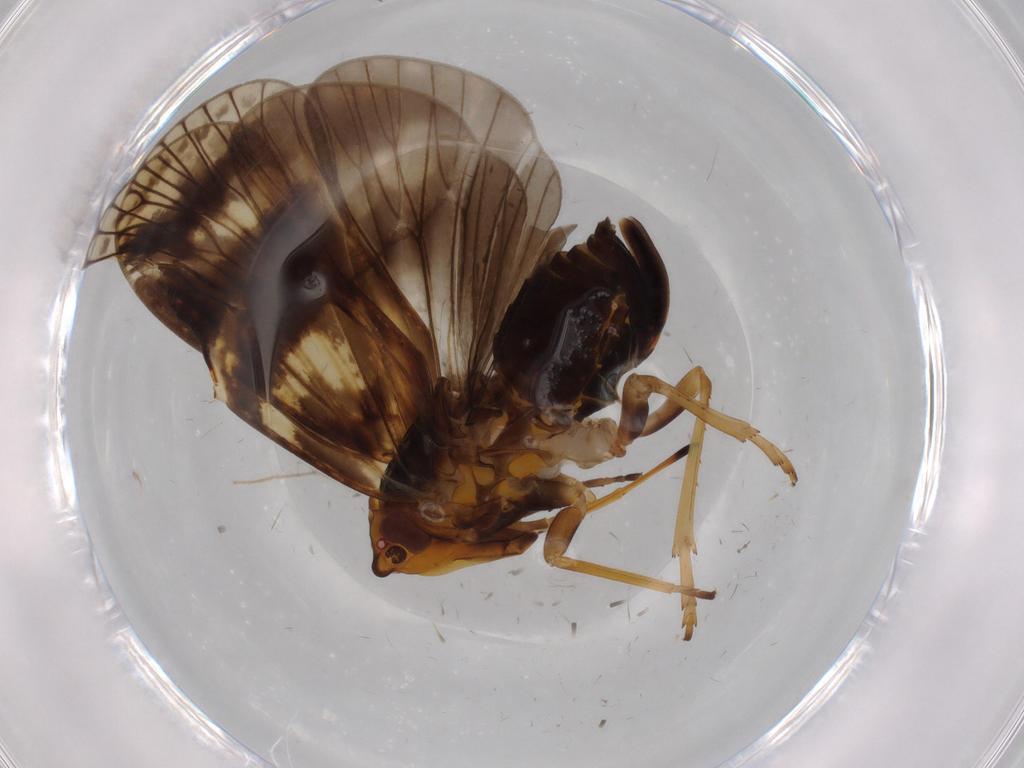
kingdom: Animalia
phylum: Arthropoda
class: Insecta
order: Hemiptera
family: Cixiidae
